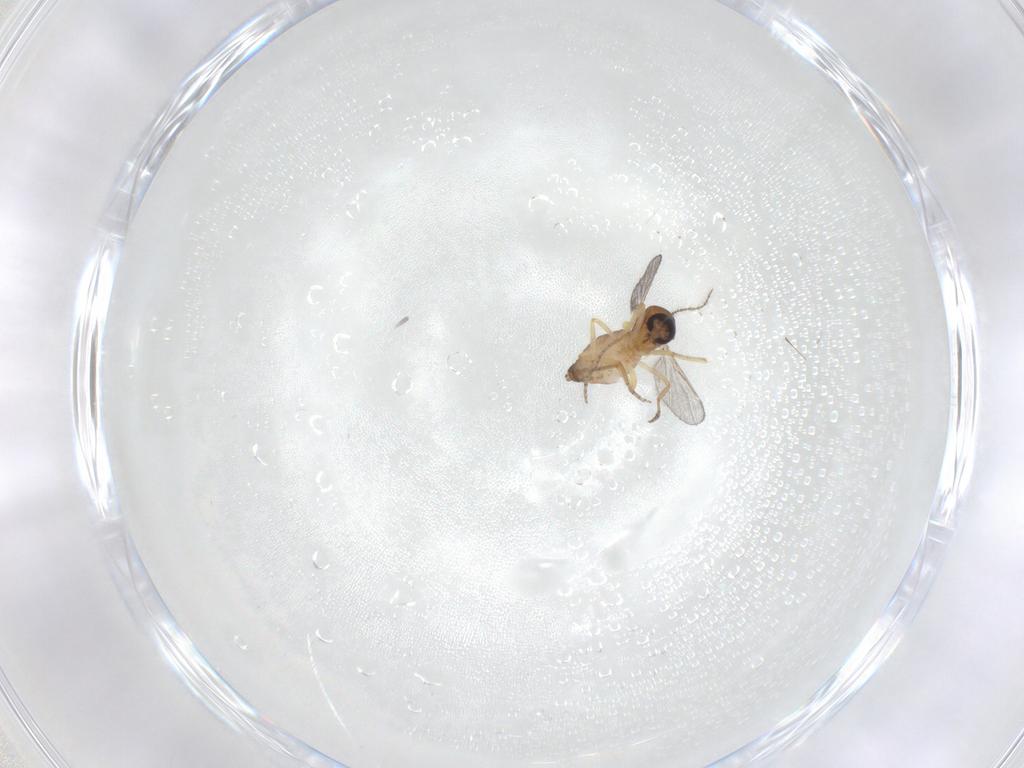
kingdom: Animalia
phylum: Arthropoda
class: Insecta
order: Diptera
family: Ceratopogonidae
